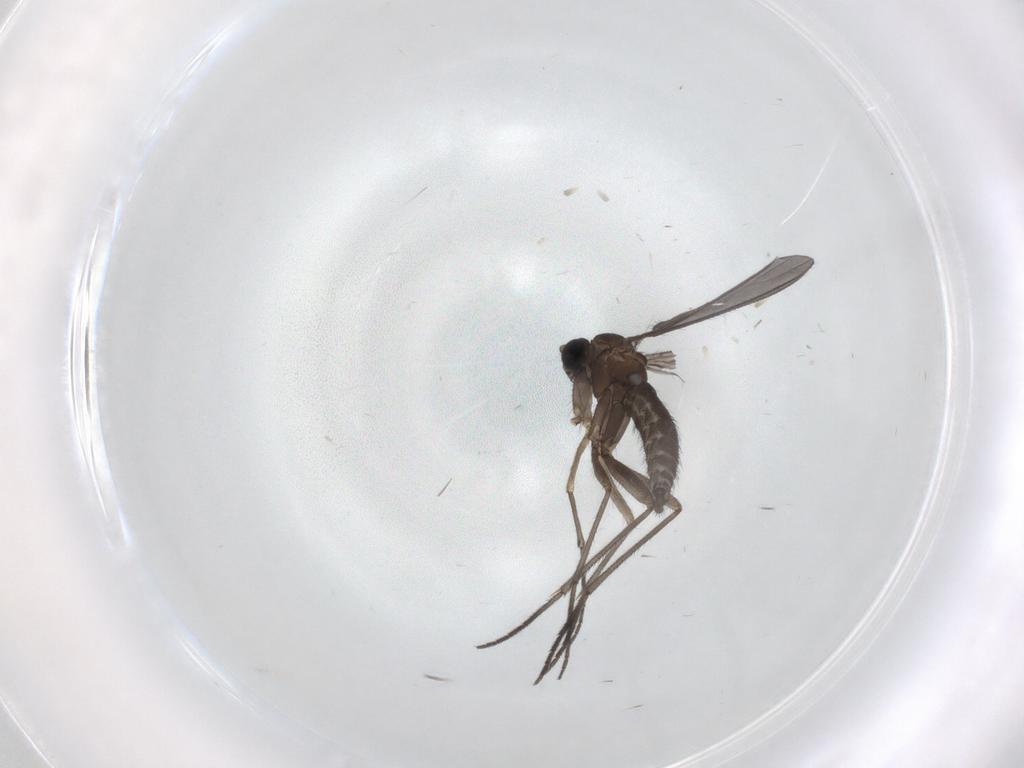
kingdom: Animalia
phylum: Arthropoda
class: Insecta
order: Diptera
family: Sciaridae
